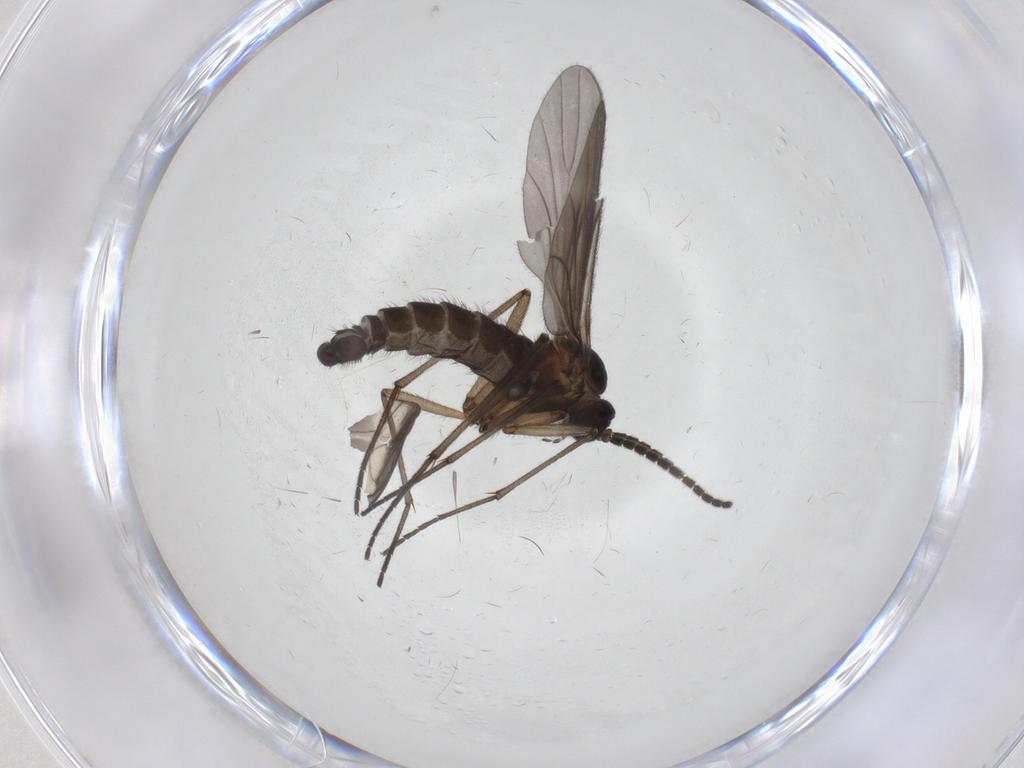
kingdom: Animalia
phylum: Arthropoda
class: Insecta
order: Diptera
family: Sciaridae
